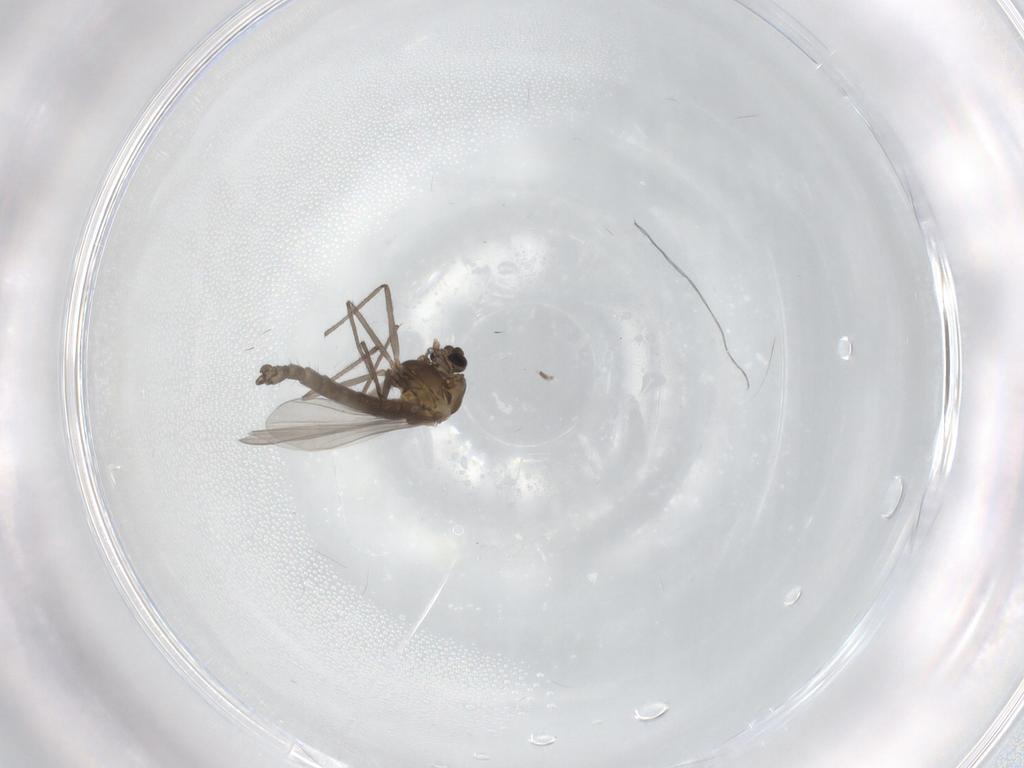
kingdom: Animalia
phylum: Arthropoda
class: Insecta
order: Diptera
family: Chironomidae
